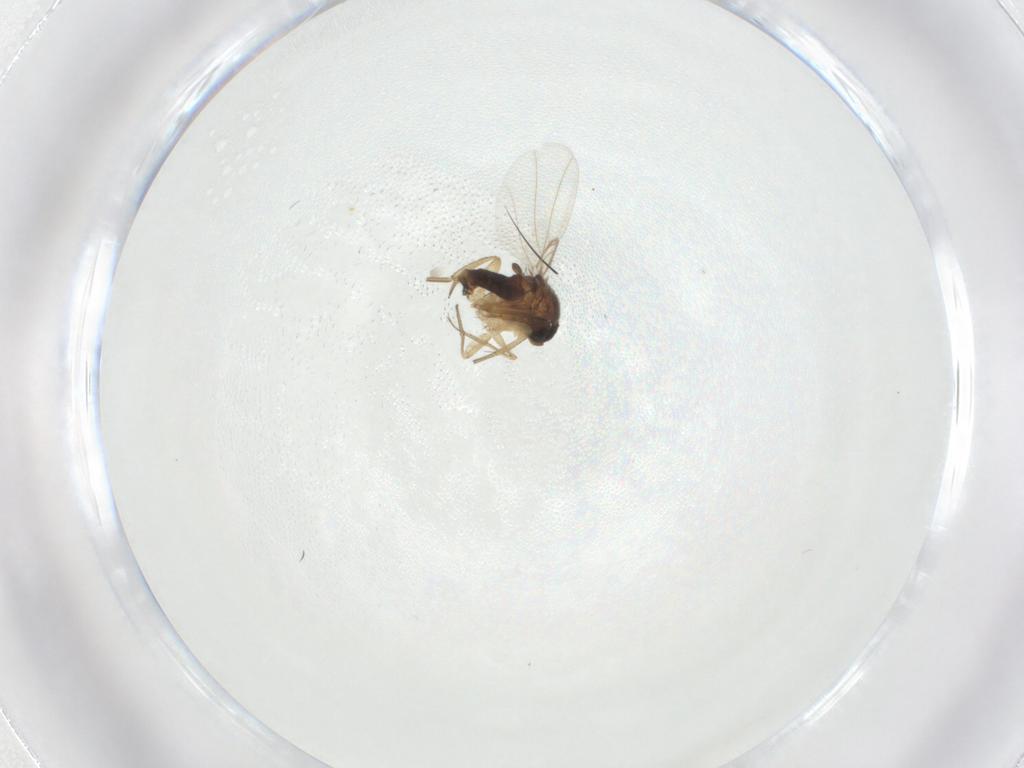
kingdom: Animalia
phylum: Arthropoda
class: Insecta
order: Diptera
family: Phoridae
